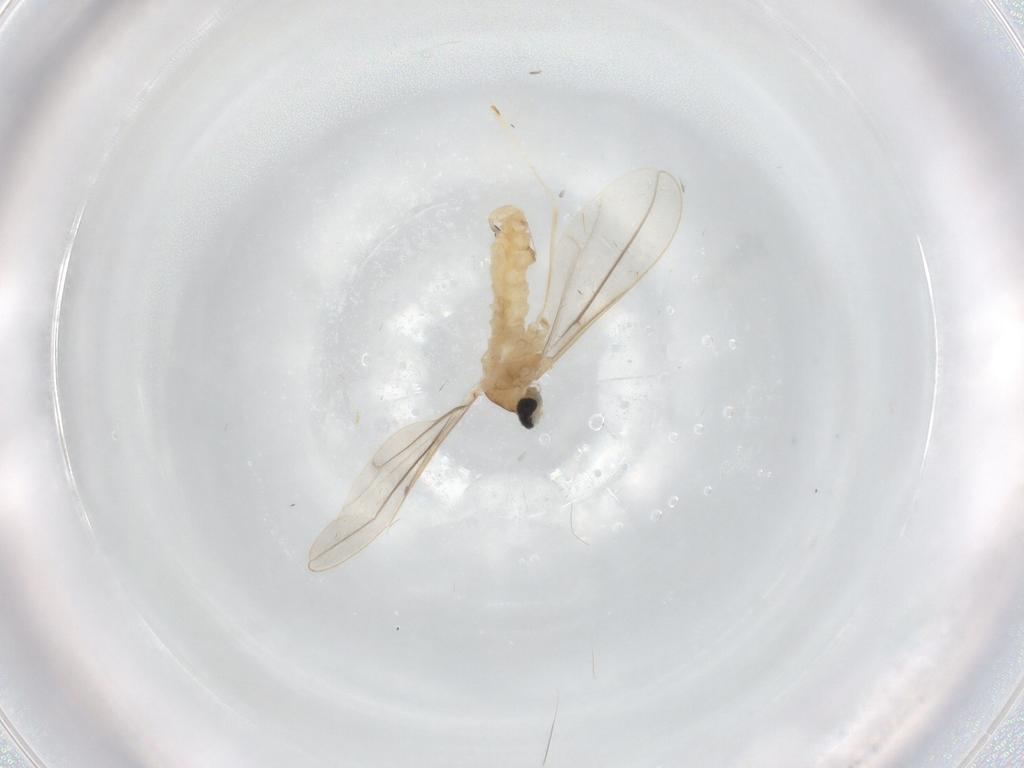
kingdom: Animalia
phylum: Arthropoda
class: Insecta
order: Diptera
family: Cecidomyiidae
